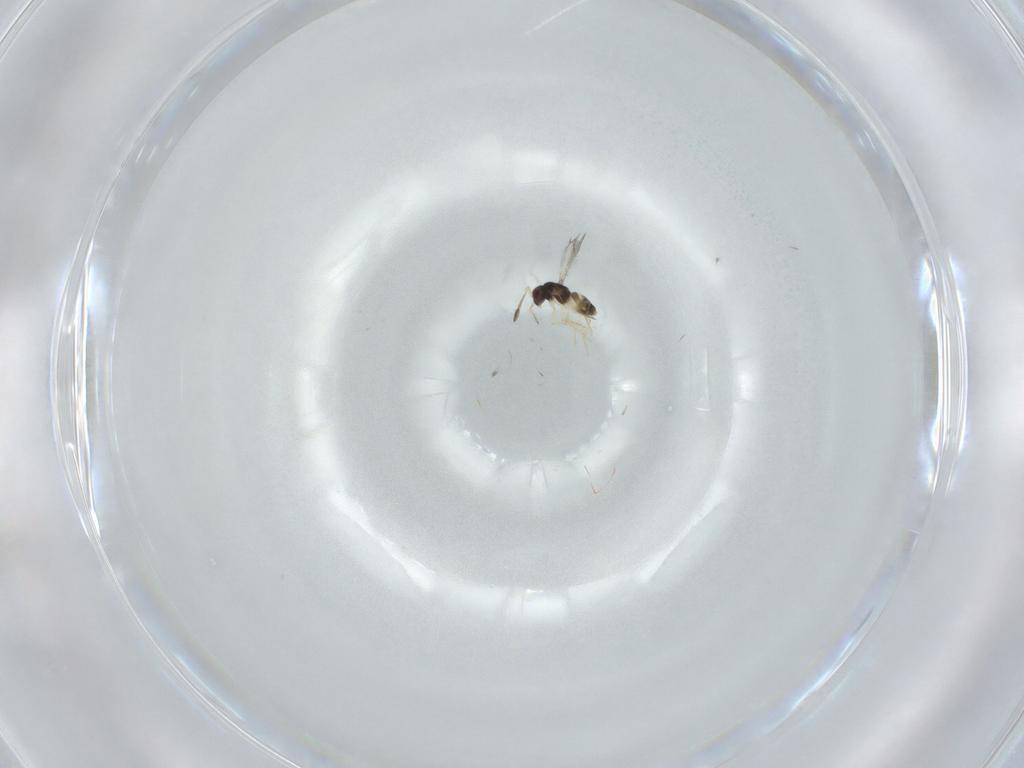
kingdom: Animalia
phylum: Arthropoda
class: Insecta
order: Hymenoptera
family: Mymaridae
